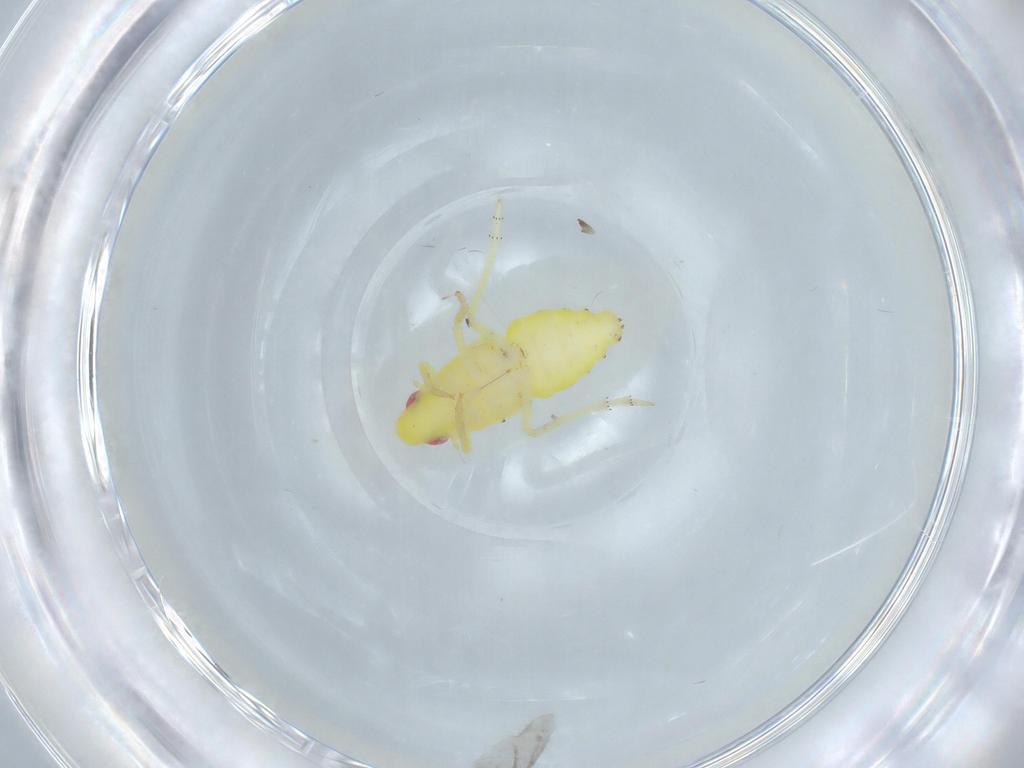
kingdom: Animalia
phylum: Arthropoda
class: Insecta
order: Hemiptera
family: Tropiduchidae
